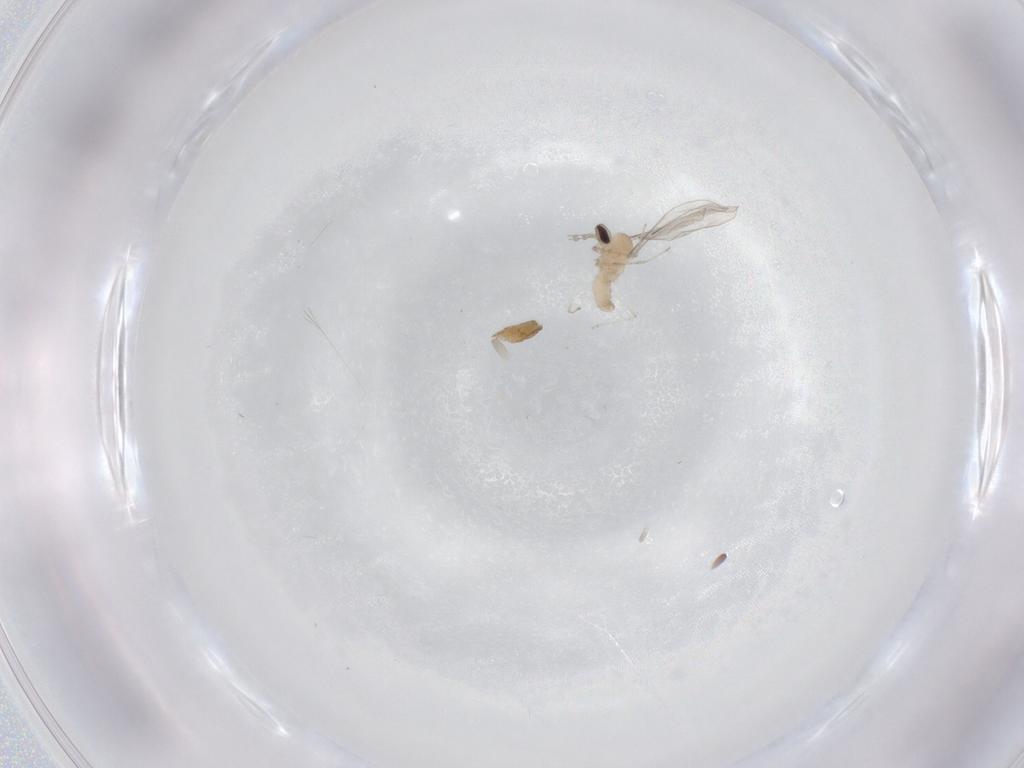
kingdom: Animalia
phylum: Arthropoda
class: Insecta
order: Diptera
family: Cecidomyiidae
